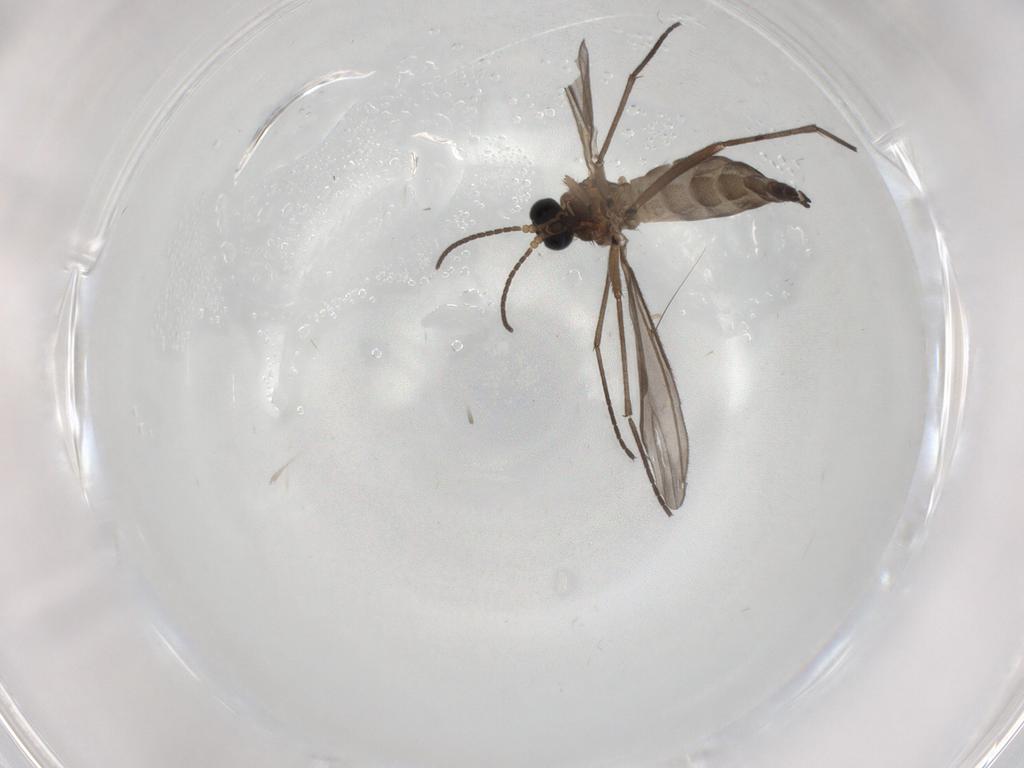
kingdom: Animalia
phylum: Arthropoda
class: Insecta
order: Diptera
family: Sciaridae
